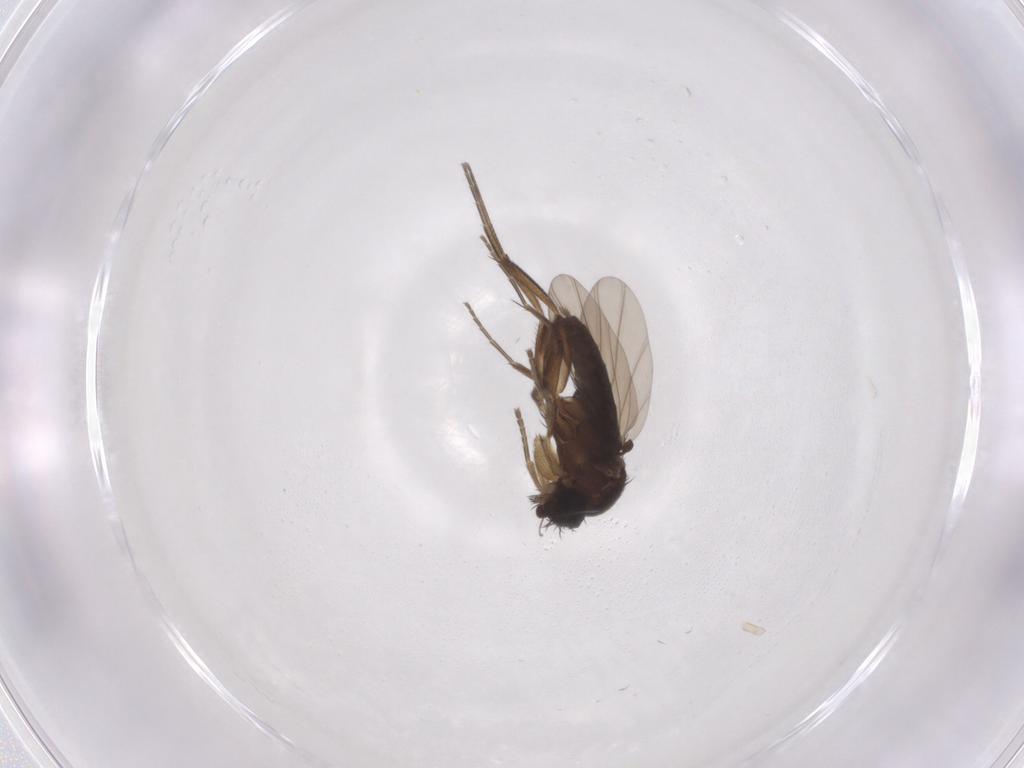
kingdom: Animalia
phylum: Arthropoda
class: Insecta
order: Diptera
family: Phoridae
